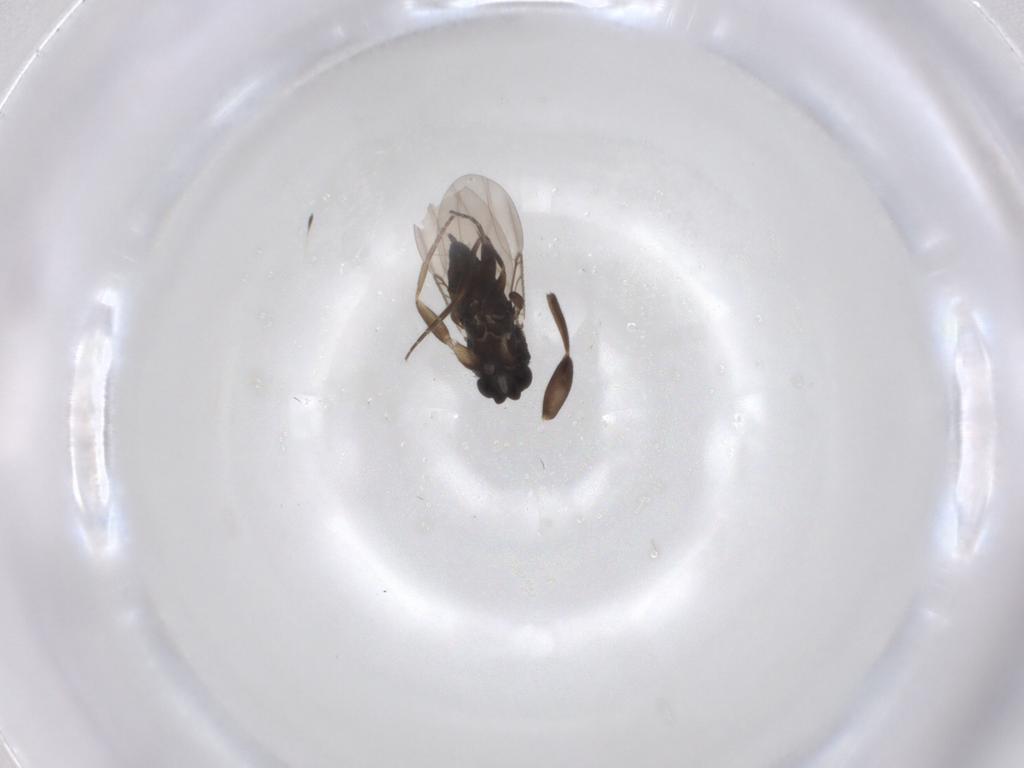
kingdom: Animalia
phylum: Arthropoda
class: Insecta
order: Diptera
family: Phoridae
